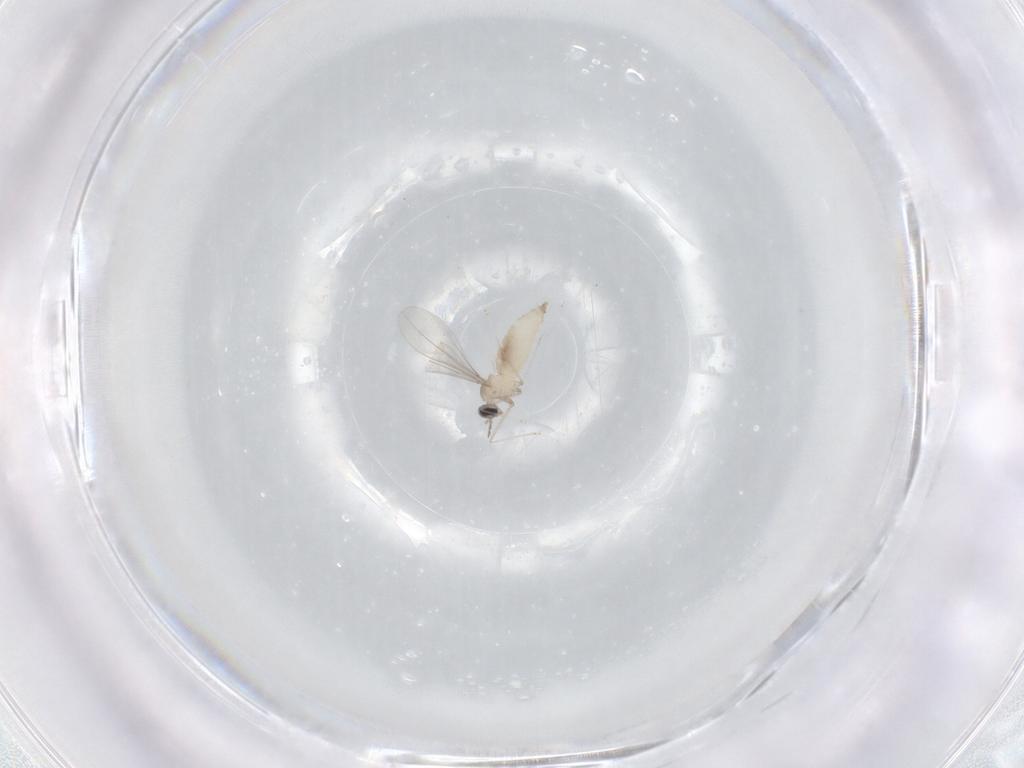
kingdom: Animalia
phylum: Arthropoda
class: Insecta
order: Diptera
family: Cecidomyiidae
